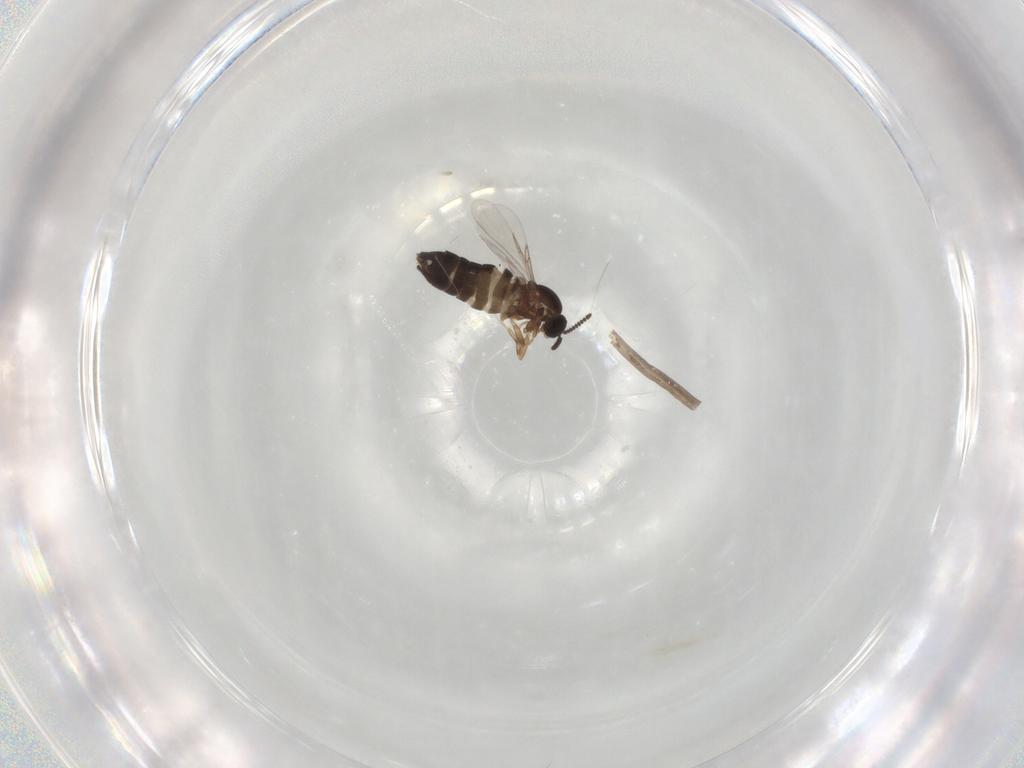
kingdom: Animalia
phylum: Arthropoda
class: Insecta
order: Diptera
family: Scatopsidae
